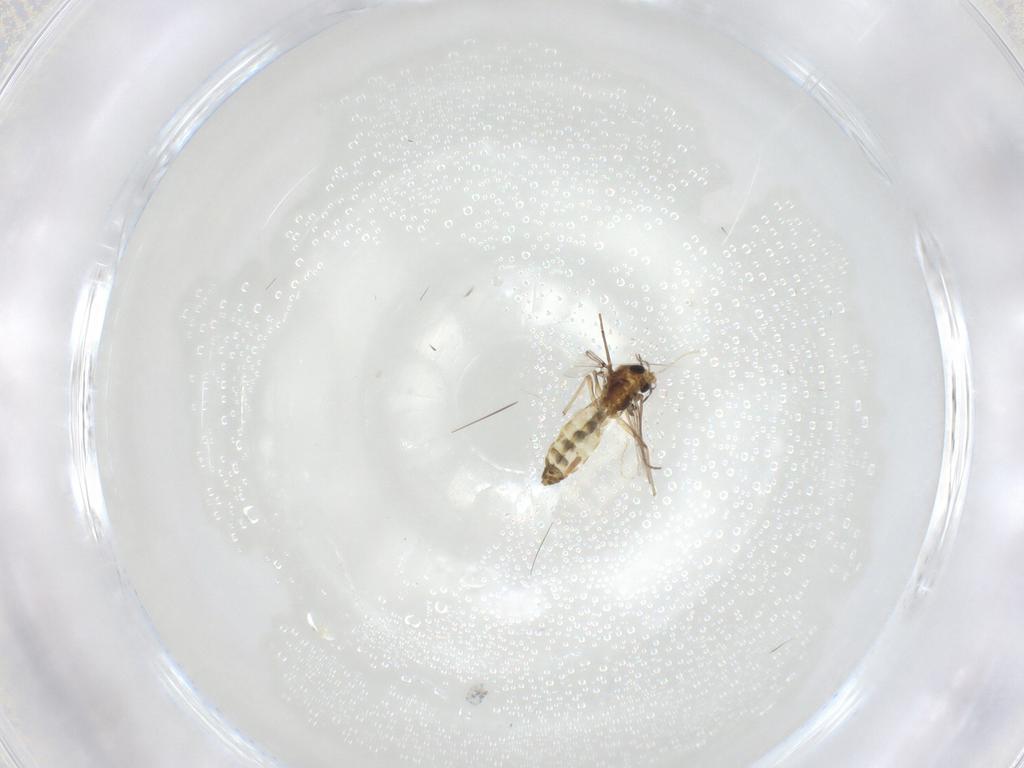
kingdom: Animalia
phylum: Arthropoda
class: Insecta
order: Diptera
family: Chironomidae
